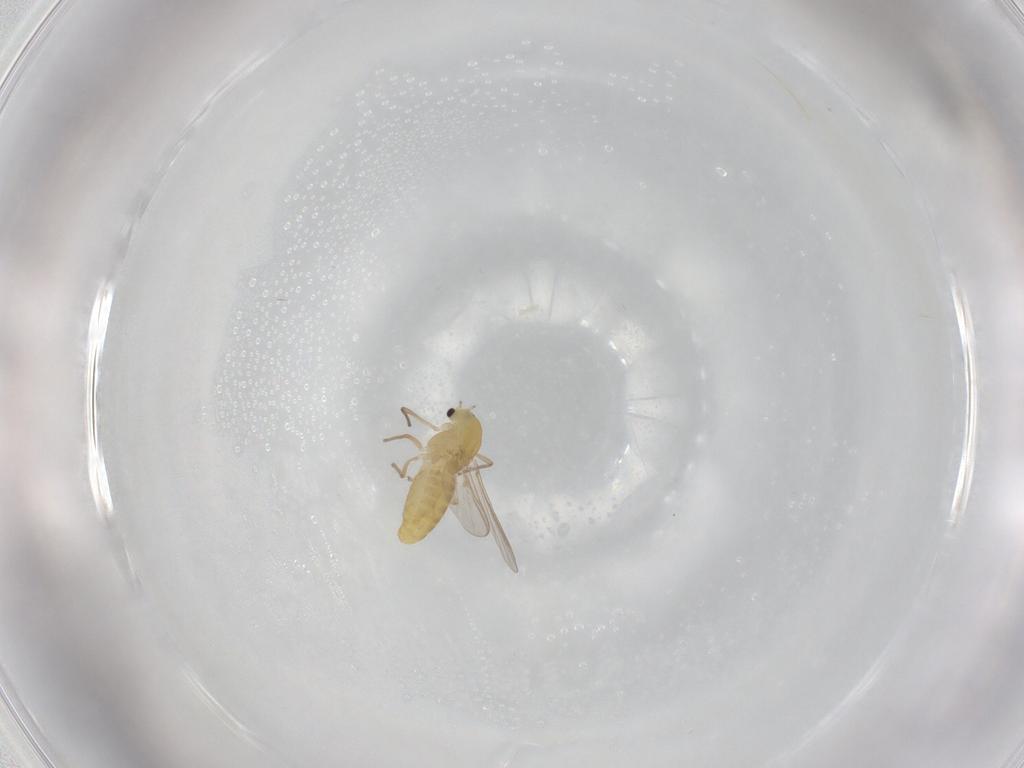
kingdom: Animalia
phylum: Arthropoda
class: Insecta
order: Diptera
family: Chironomidae
